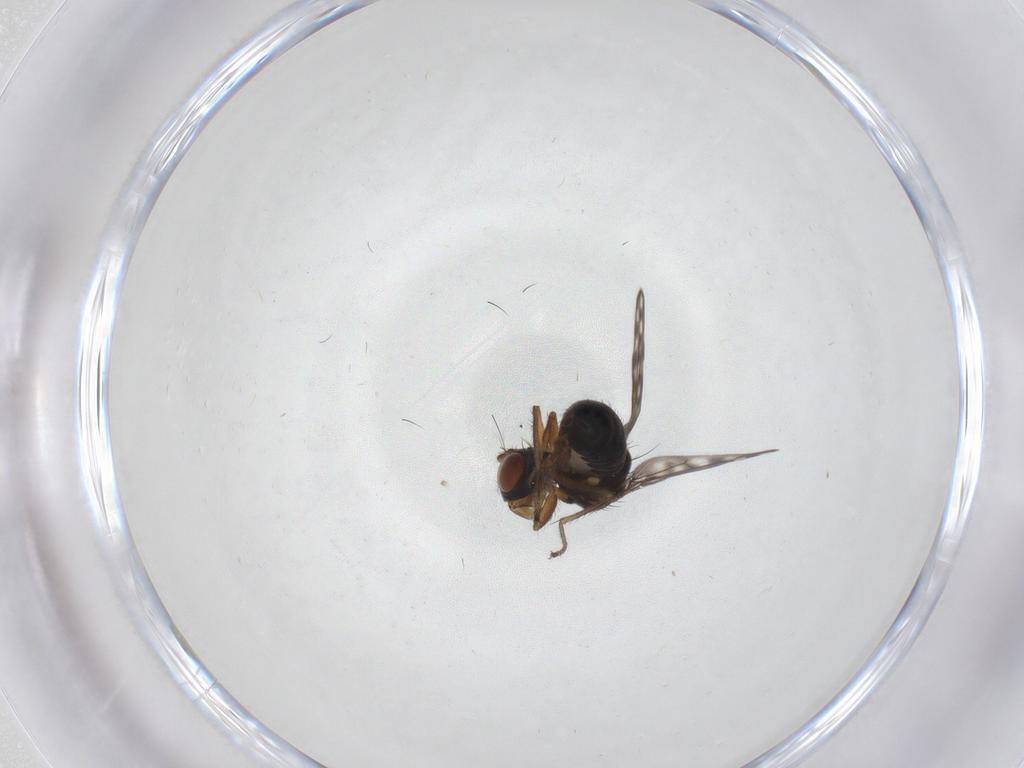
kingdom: Animalia
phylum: Arthropoda
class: Insecta
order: Diptera
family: Ephydridae
